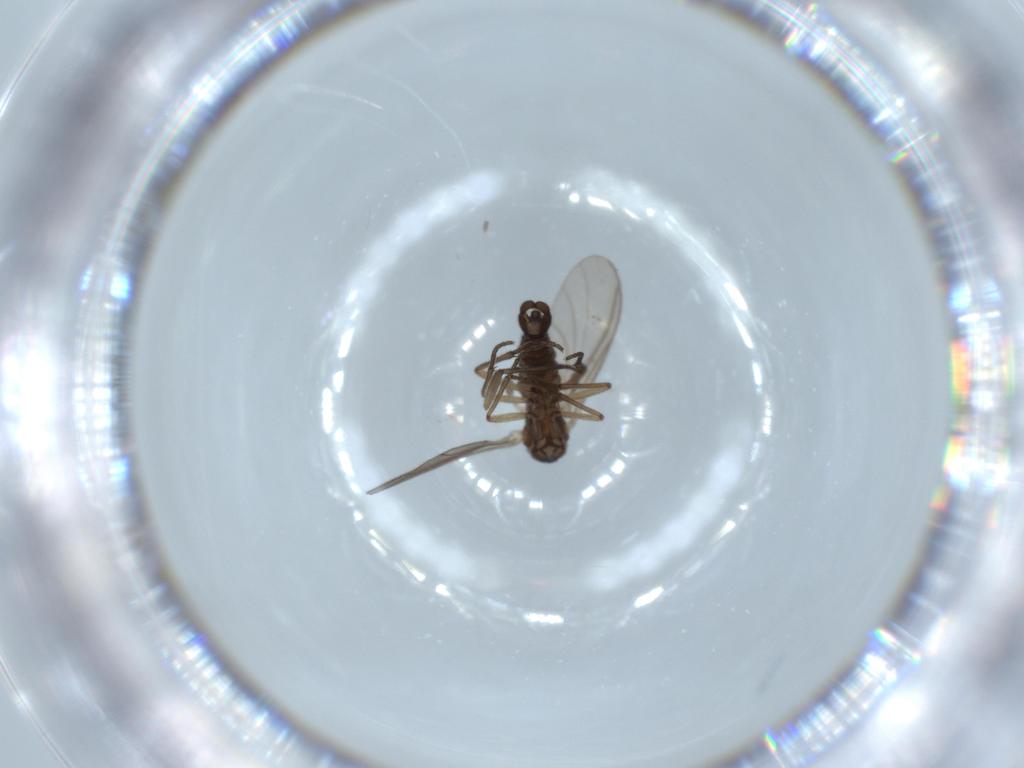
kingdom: Animalia
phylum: Arthropoda
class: Insecta
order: Diptera
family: Sciaridae
